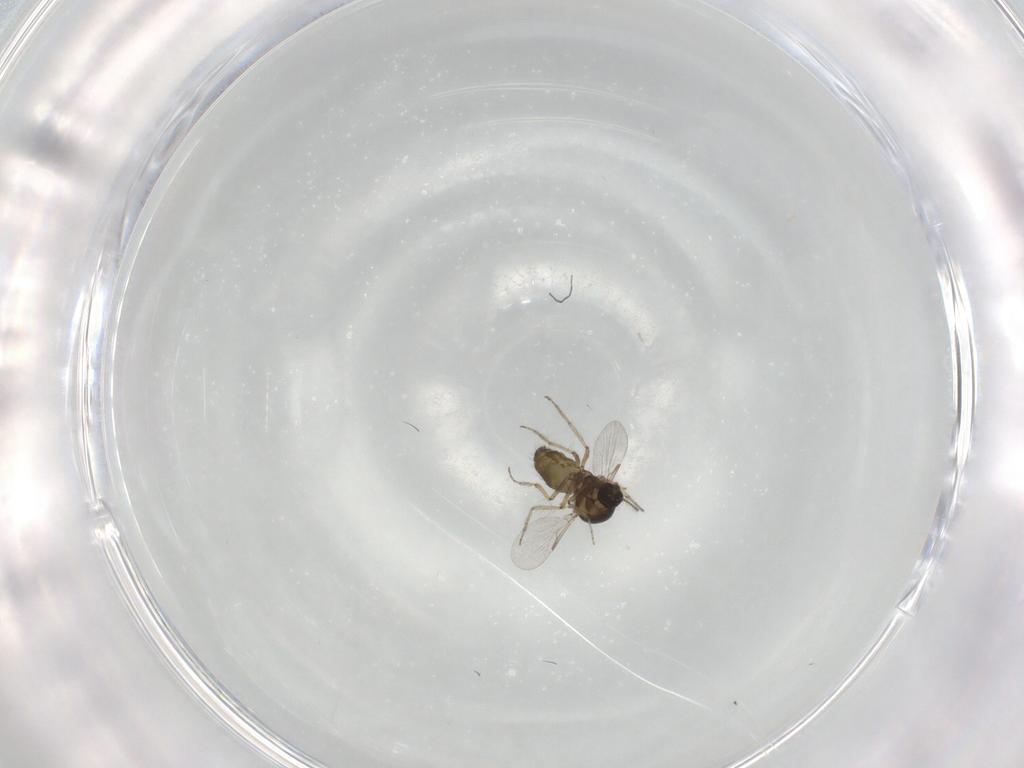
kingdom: Animalia
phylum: Arthropoda
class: Insecta
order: Diptera
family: Ceratopogonidae
